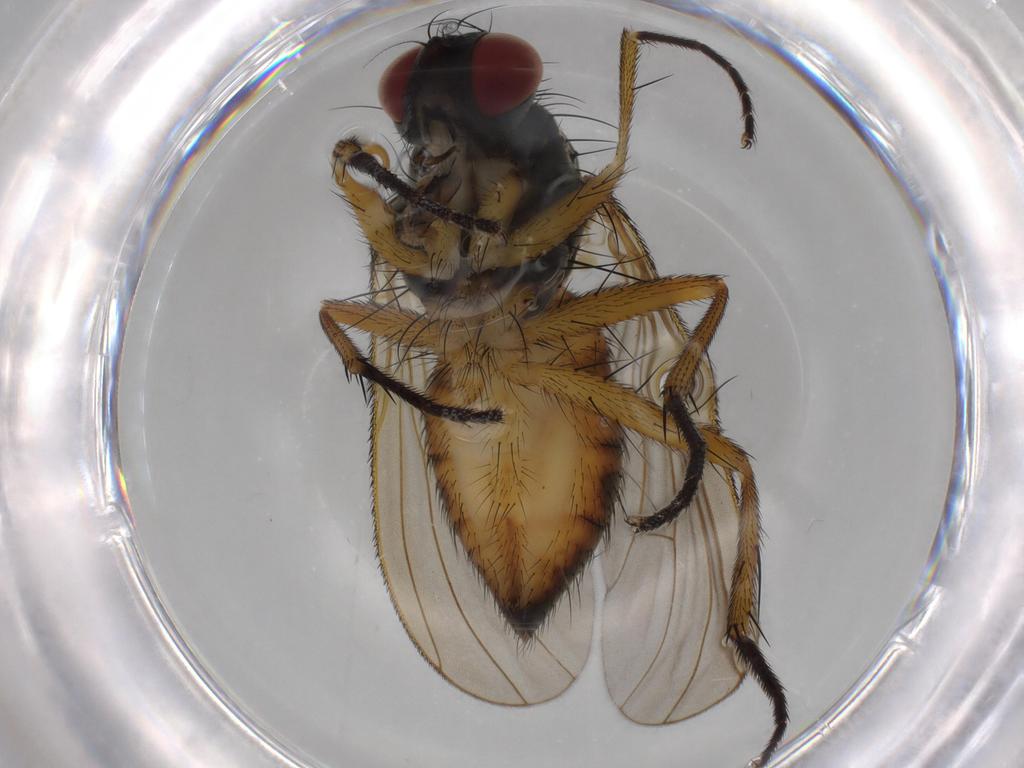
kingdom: Animalia
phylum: Arthropoda
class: Insecta
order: Diptera
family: Muscidae
